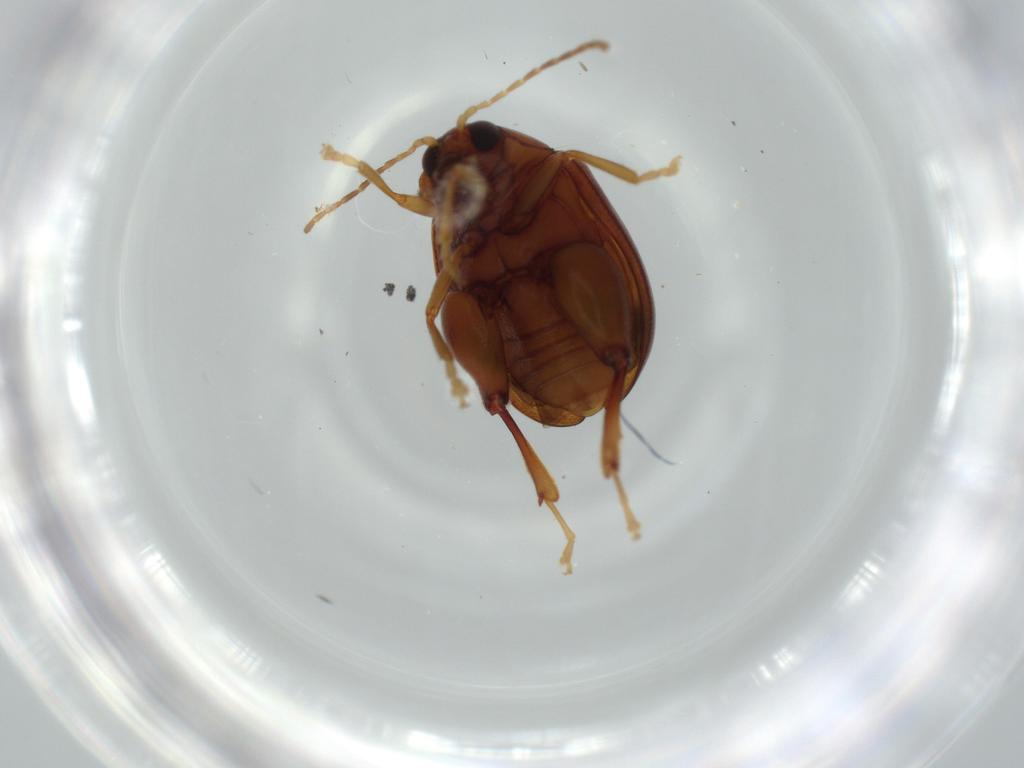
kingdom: Animalia
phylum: Arthropoda
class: Insecta
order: Coleoptera
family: Chrysomelidae
